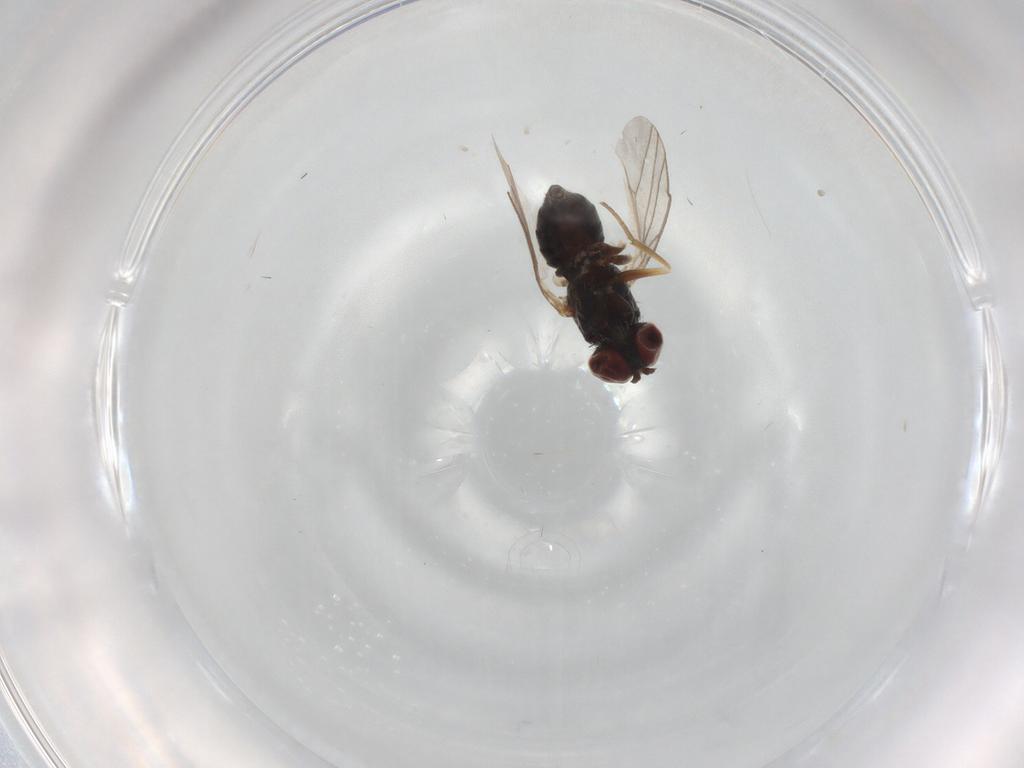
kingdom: Animalia
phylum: Arthropoda
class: Insecta
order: Diptera
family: Dolichopodidae
